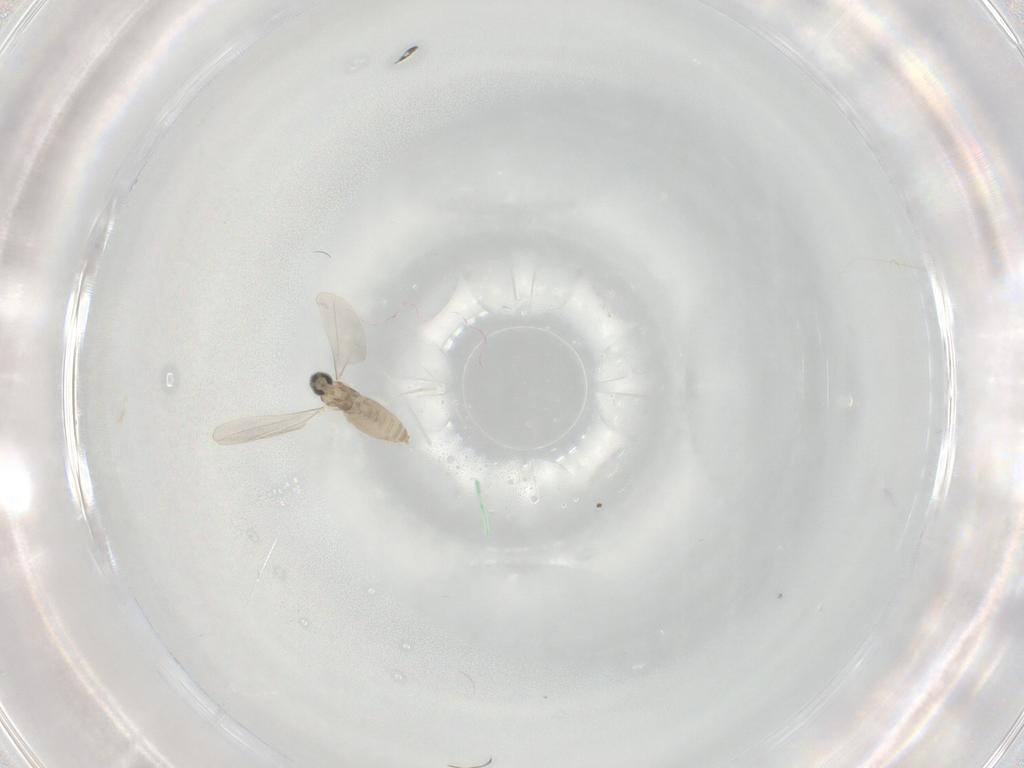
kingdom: Animalia
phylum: Arthropoda
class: Insecta
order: Diptera
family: Cecidomyiidae
